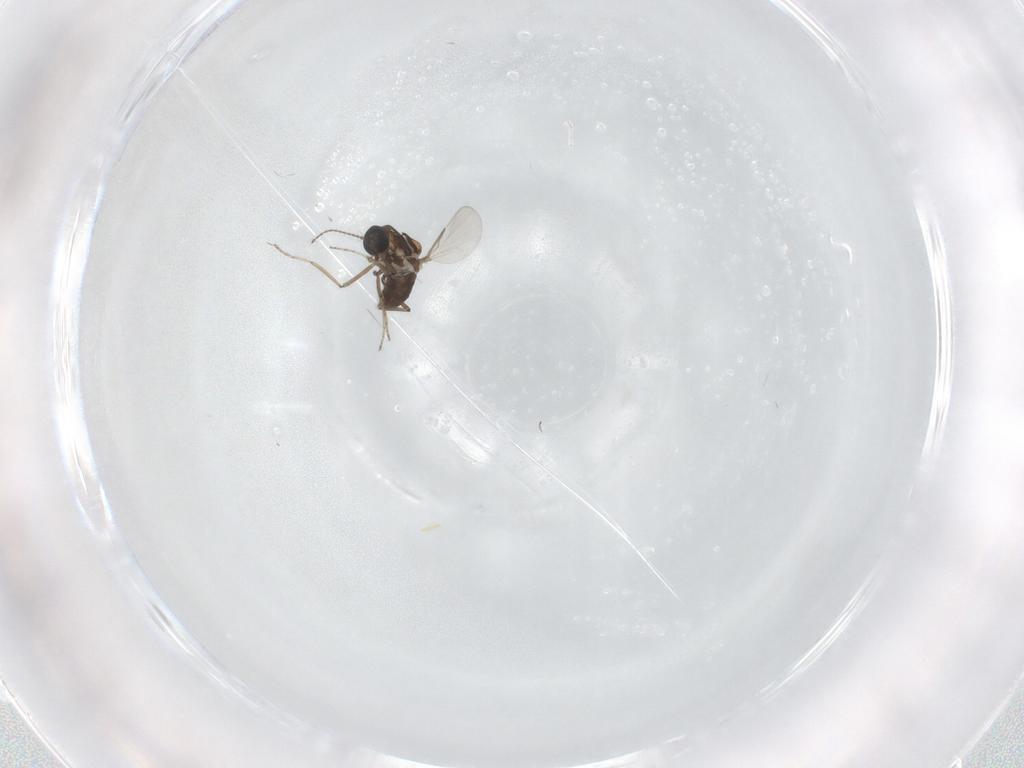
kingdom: Animalia
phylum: Arthropoda
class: Insecta
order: Diptera
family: Ceratopogonidae
